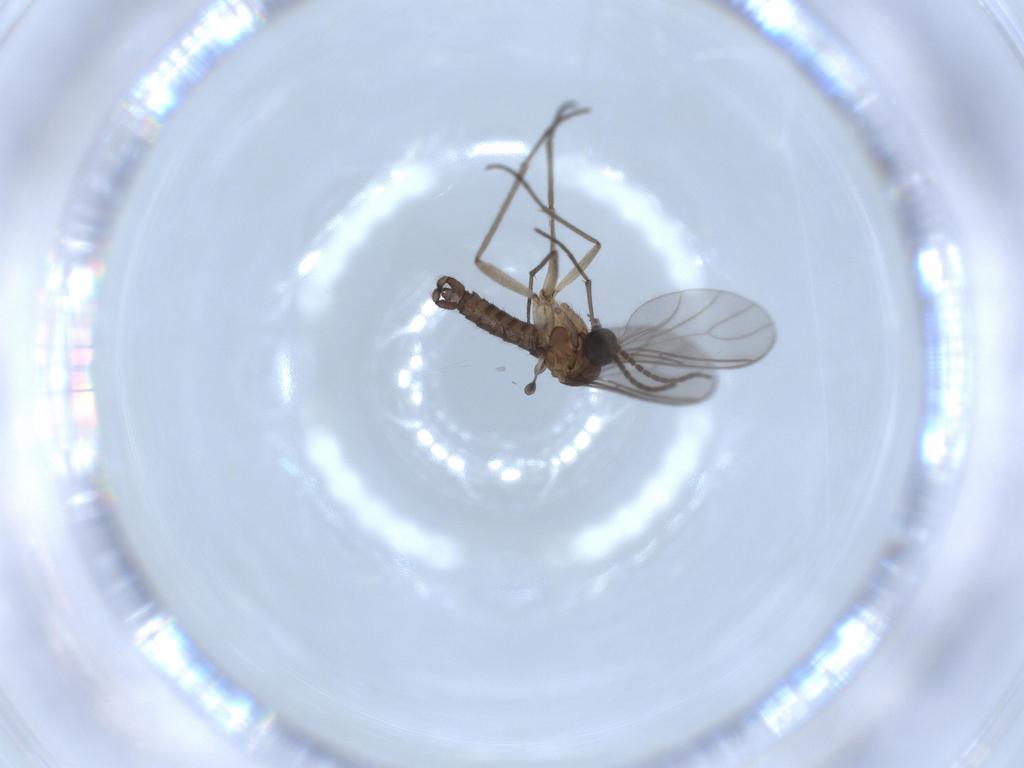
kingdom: Animalia
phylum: Arthropoda
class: Insecta
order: Diptera
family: Sciaridae
